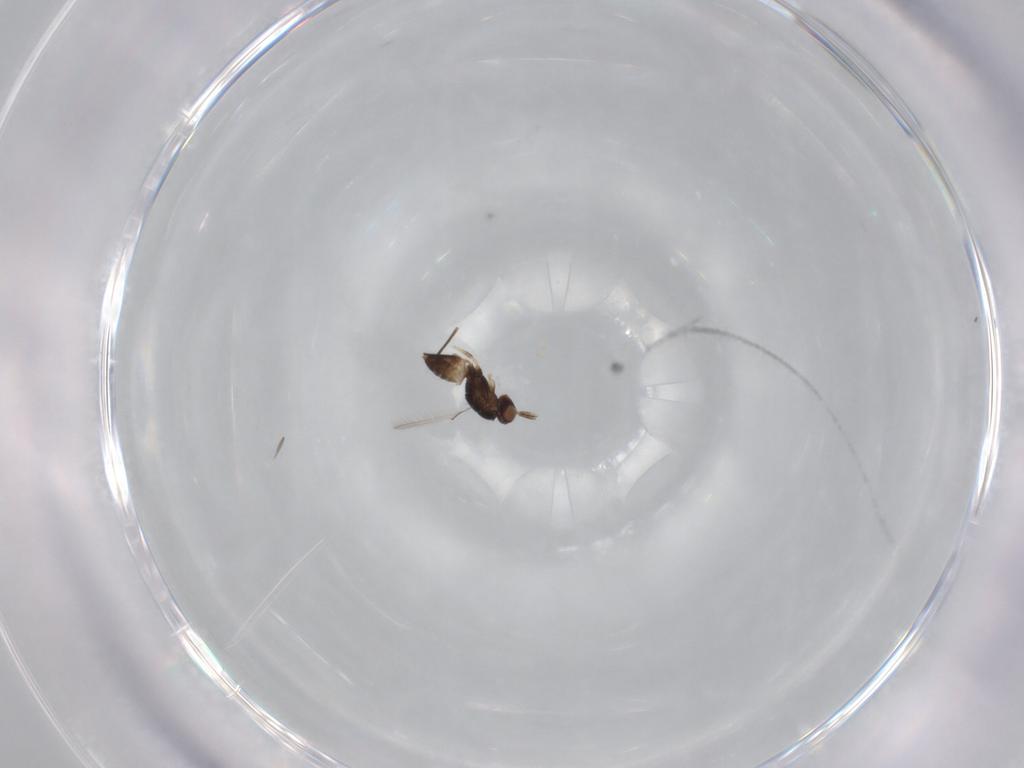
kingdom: Animalia
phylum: Arthropoda
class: Insecta
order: Hymenoptera
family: Mymaridae
